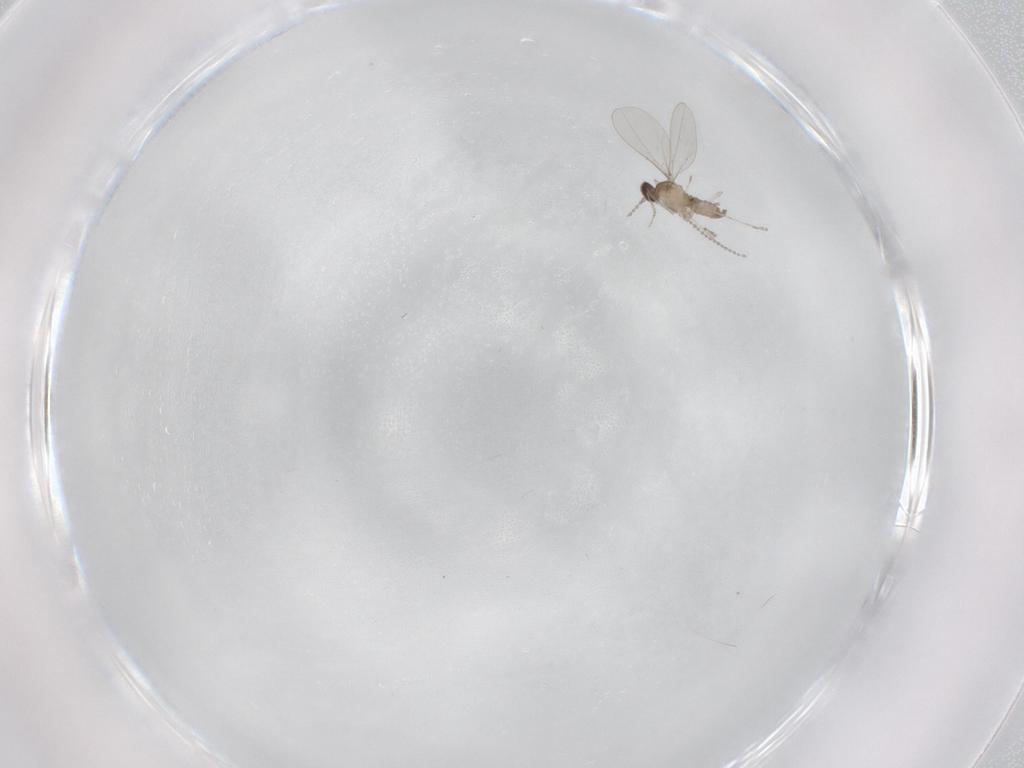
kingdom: Animalia
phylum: Arthropoda
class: Insecta
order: Diptera
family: Cecidomyiidae
